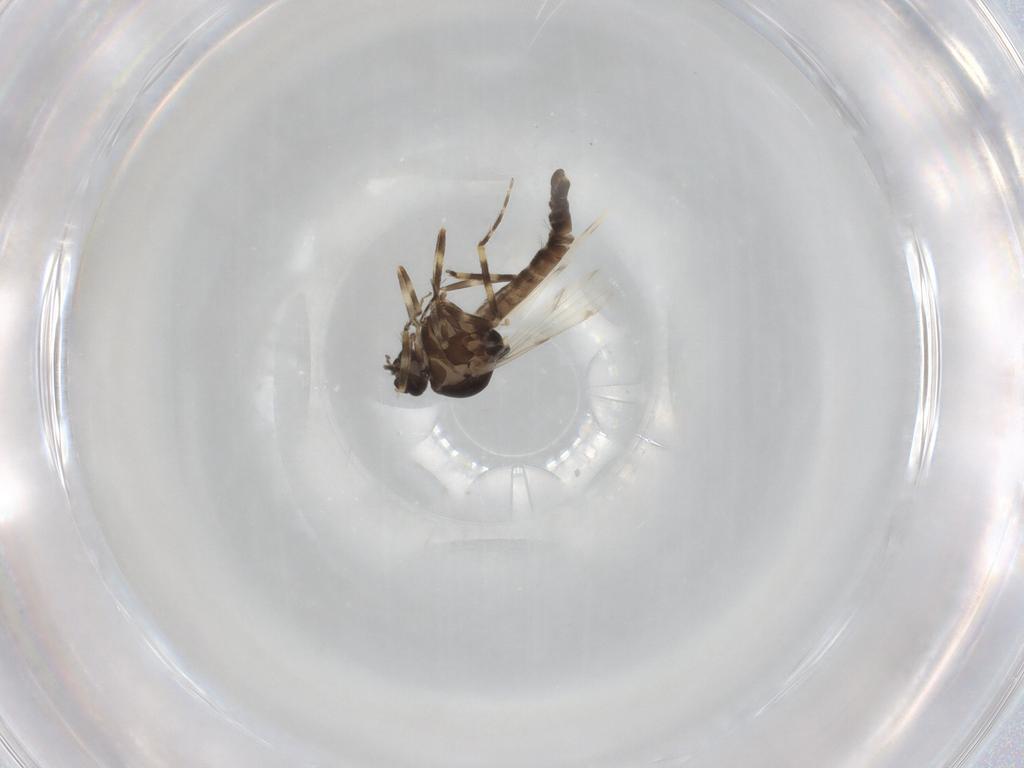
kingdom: Animalia
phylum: Arthropoda
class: Insecta
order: Diptera
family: Ceratopogonidae
